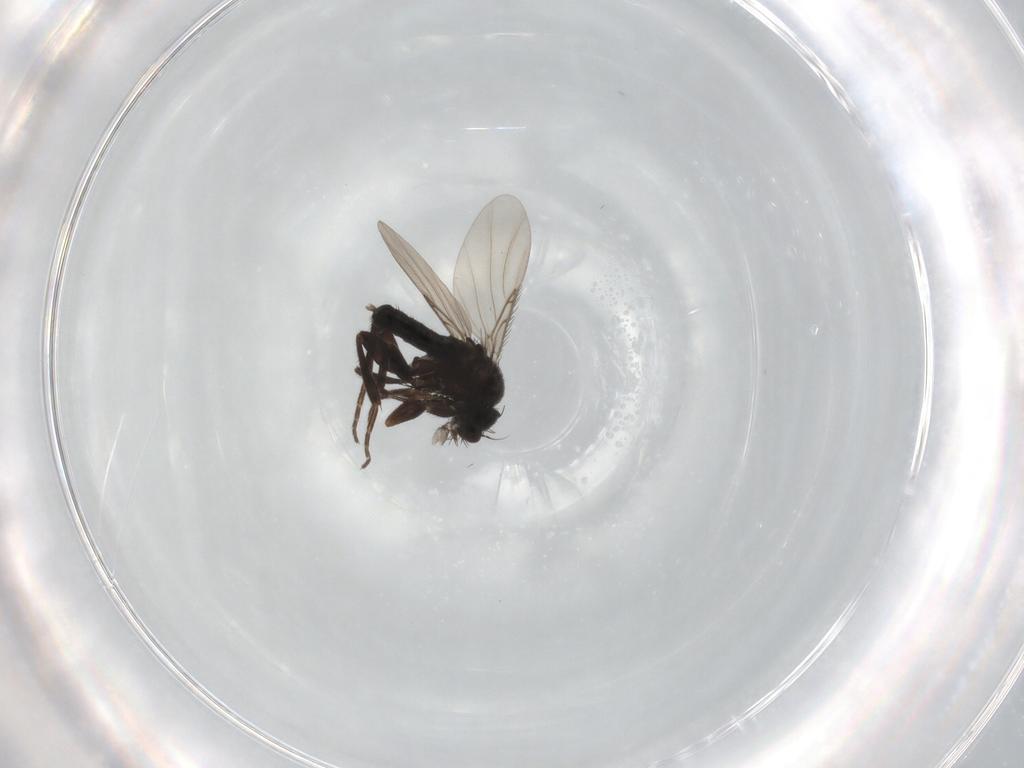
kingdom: Animalia
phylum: Arthropoda
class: Insecta
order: Diptera
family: Phoridae
